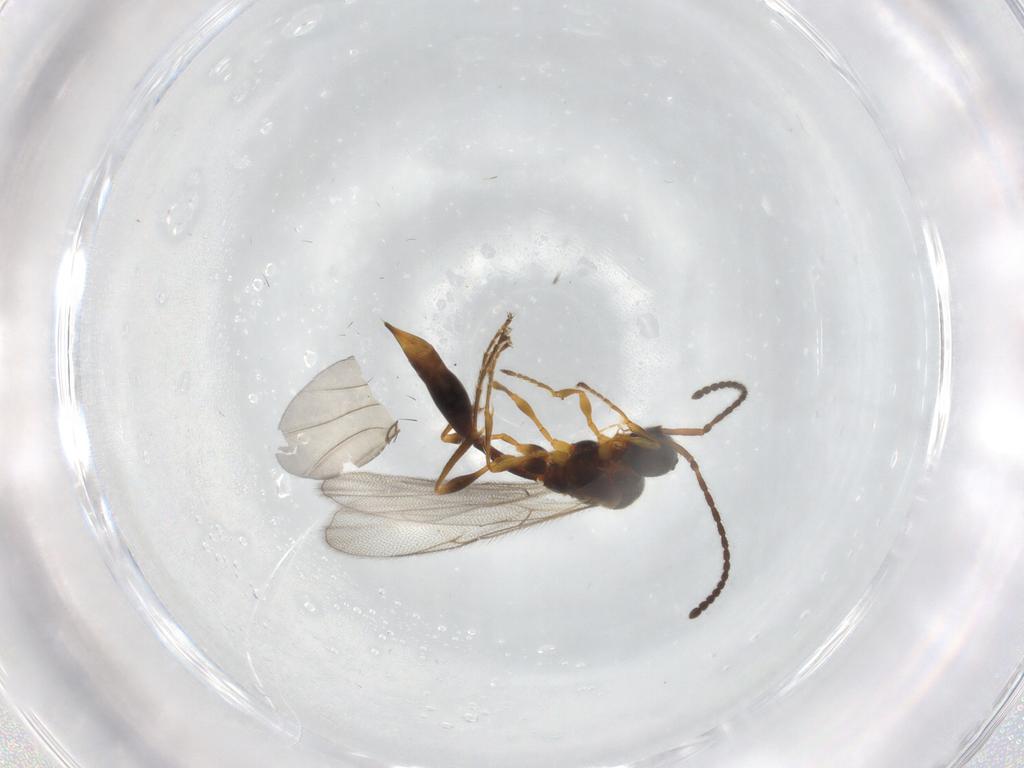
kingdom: Animalia
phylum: Arthropoda
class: Insecta
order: Hymenoptera
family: Diapriidae
